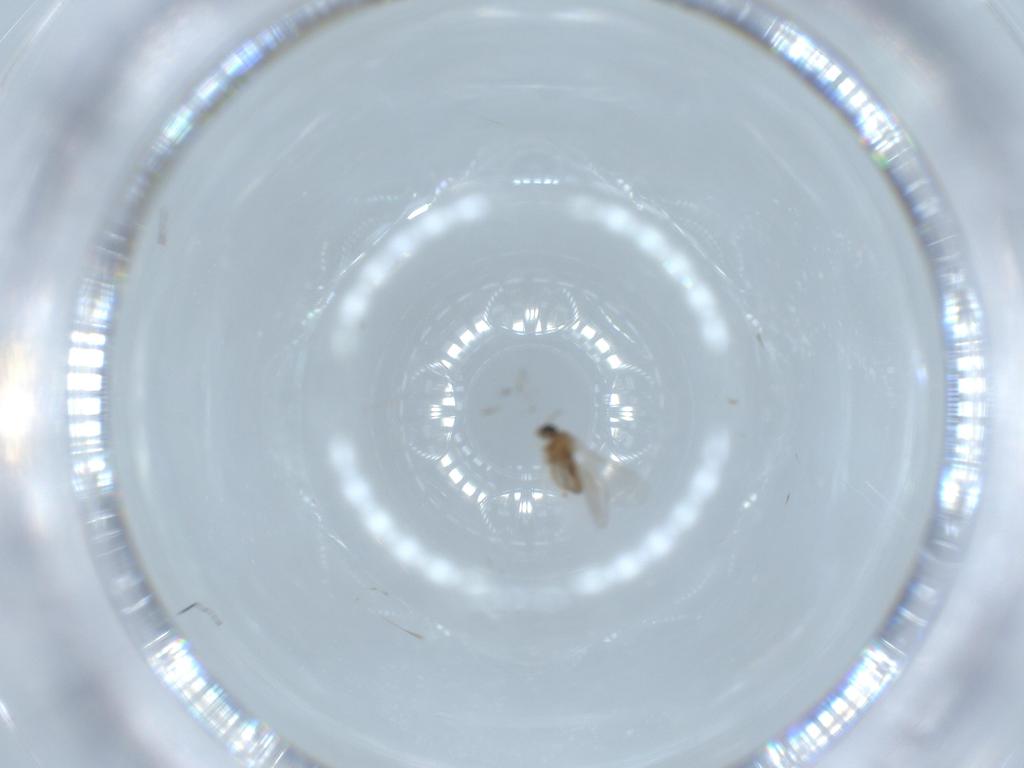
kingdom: Animalia
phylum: Arthropoda
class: Insecta
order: Diptera
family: Cecidomyiidae
